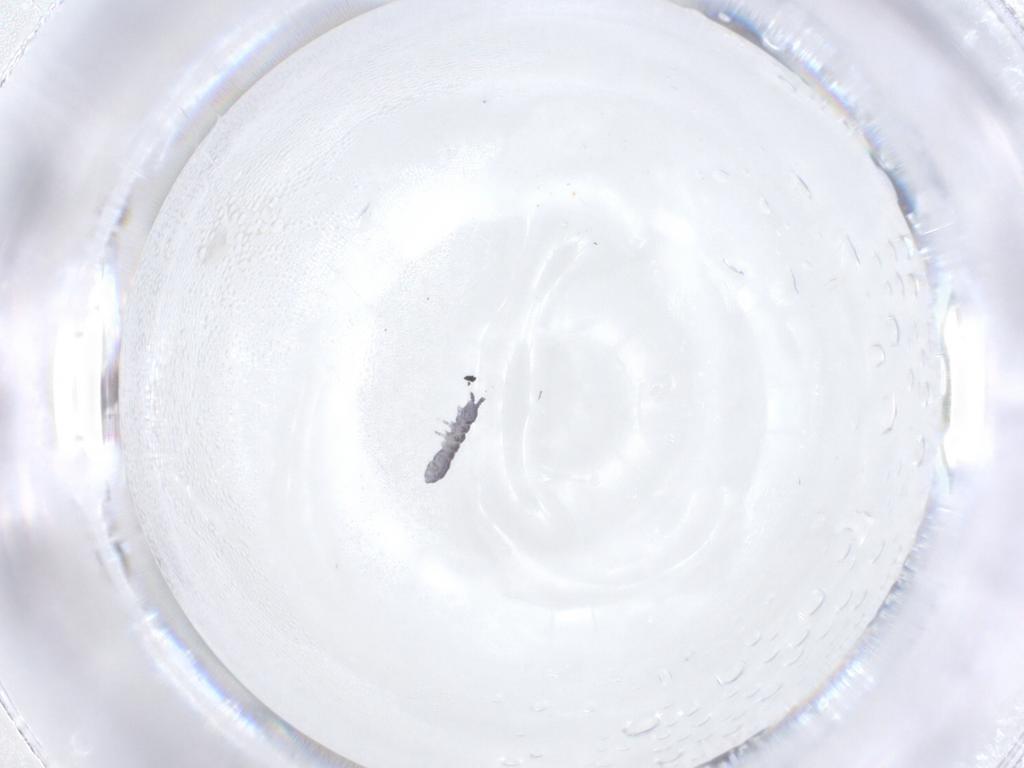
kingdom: Animalia
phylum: Arthropoda
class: Collembola
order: Poduromorpha
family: Hypogastruridae
